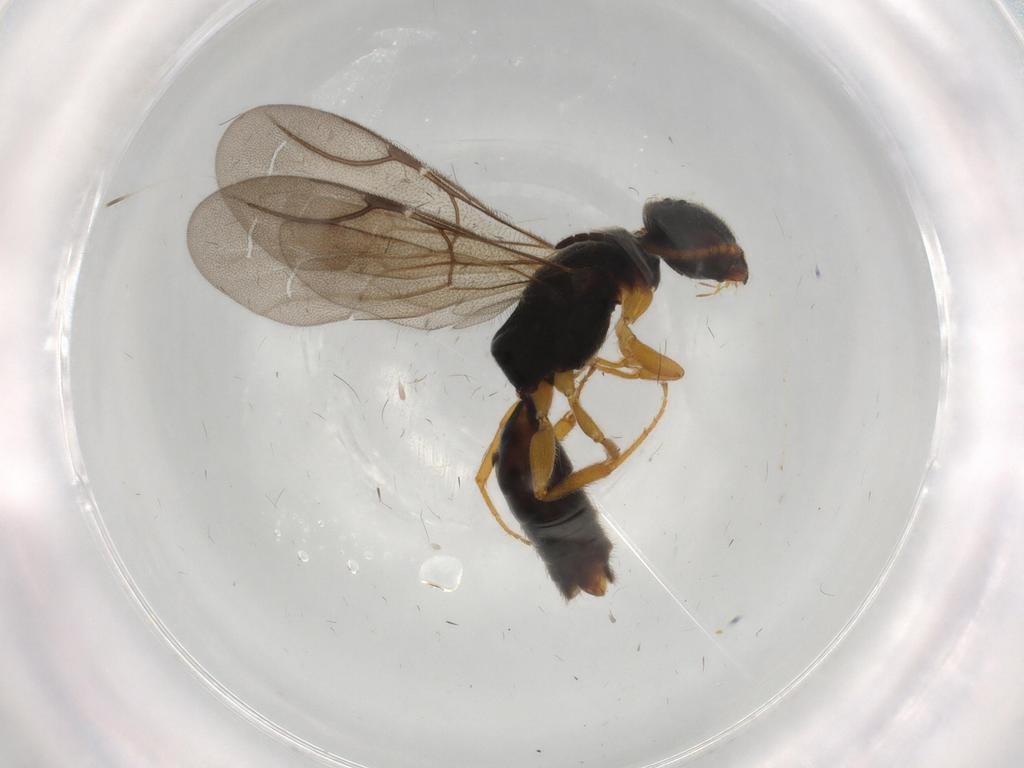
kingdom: Animalia
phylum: Arthropoda
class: Insecta
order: Hymenoptera
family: Bethylidae
